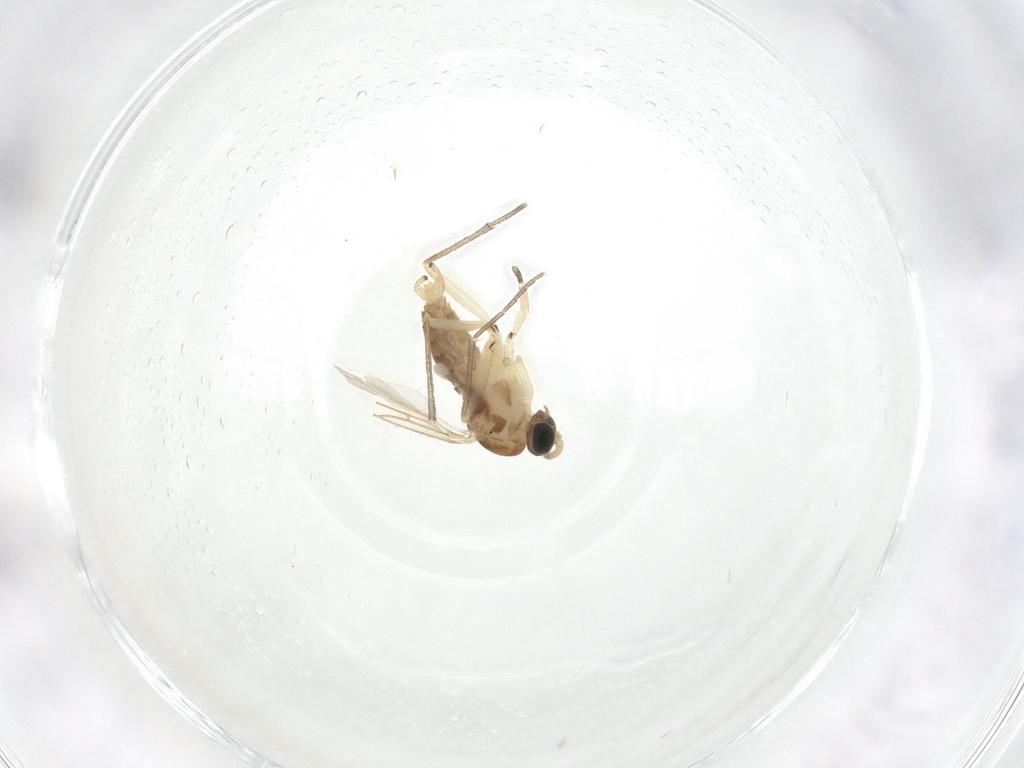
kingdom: Animalia
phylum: Arthropoda
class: Insecta
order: Diptera
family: Sciaridae
